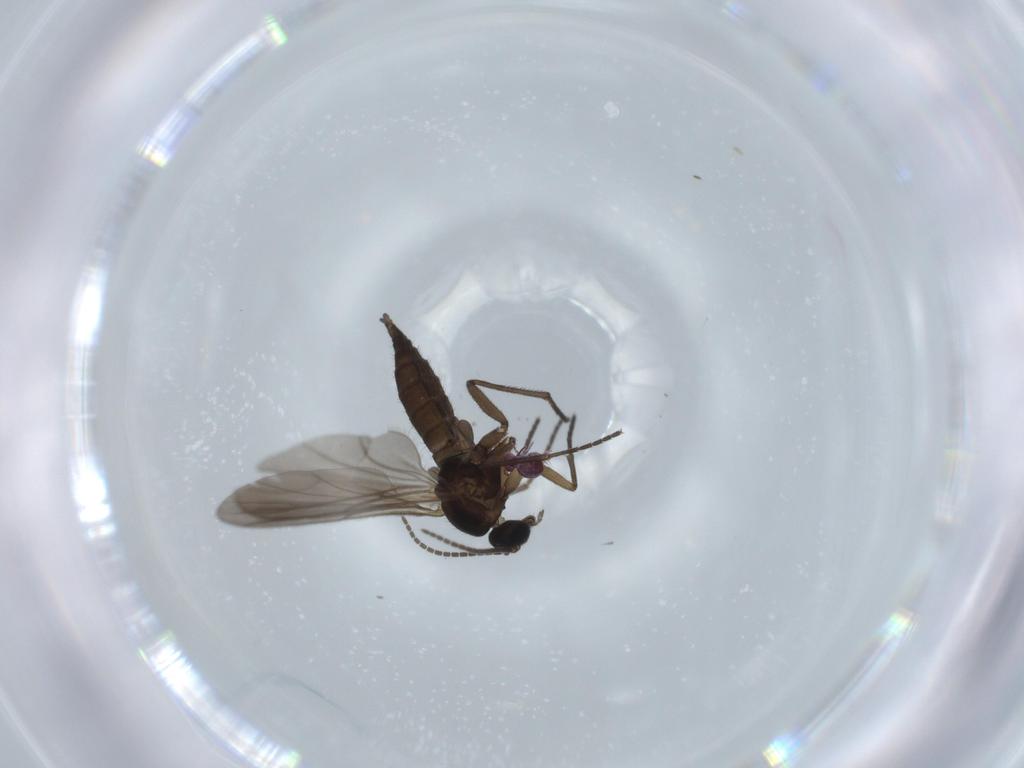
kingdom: Animalia
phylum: Arthropoda
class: Insecta
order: Diptera
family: Sciaridae
